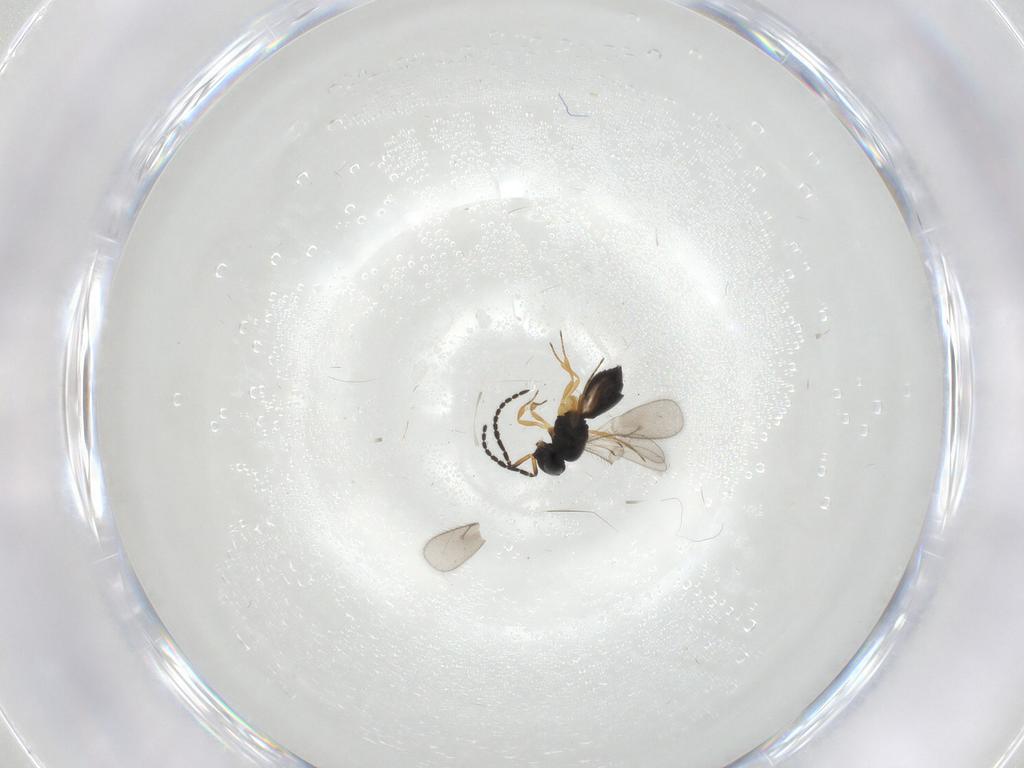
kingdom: Animalia
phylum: Arthropoda
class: Insecta
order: Hymenoptera
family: Scelionidae
